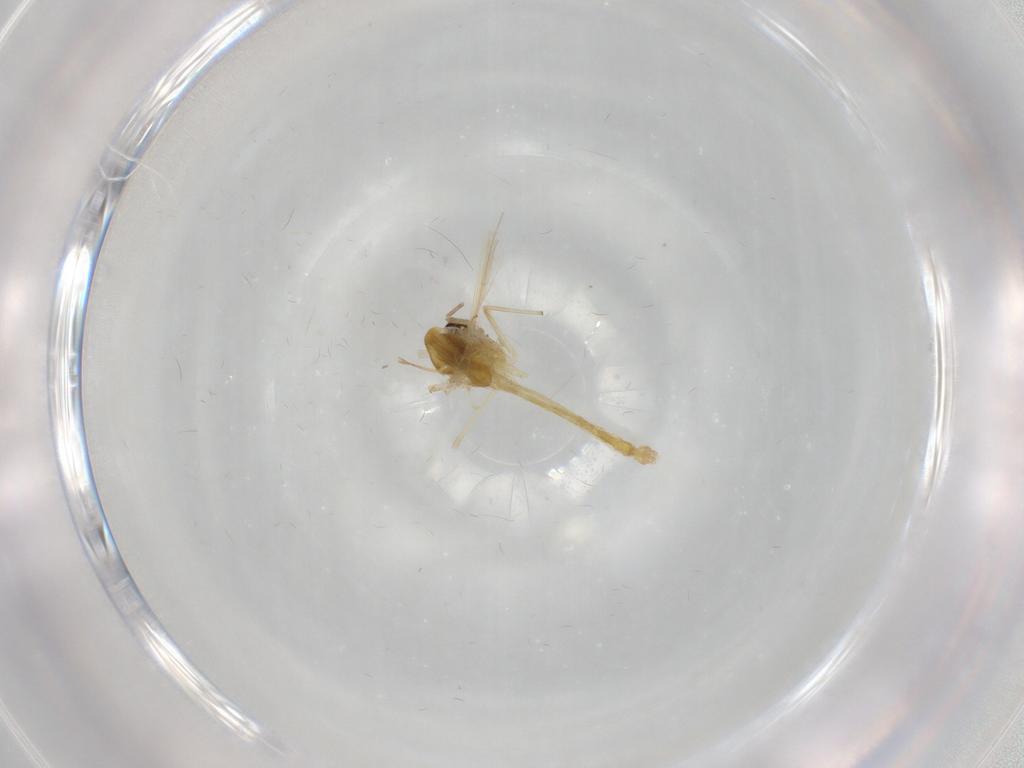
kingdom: Animalia
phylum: Arthropoda
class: Insecta
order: Diptera
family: Chironomidae
